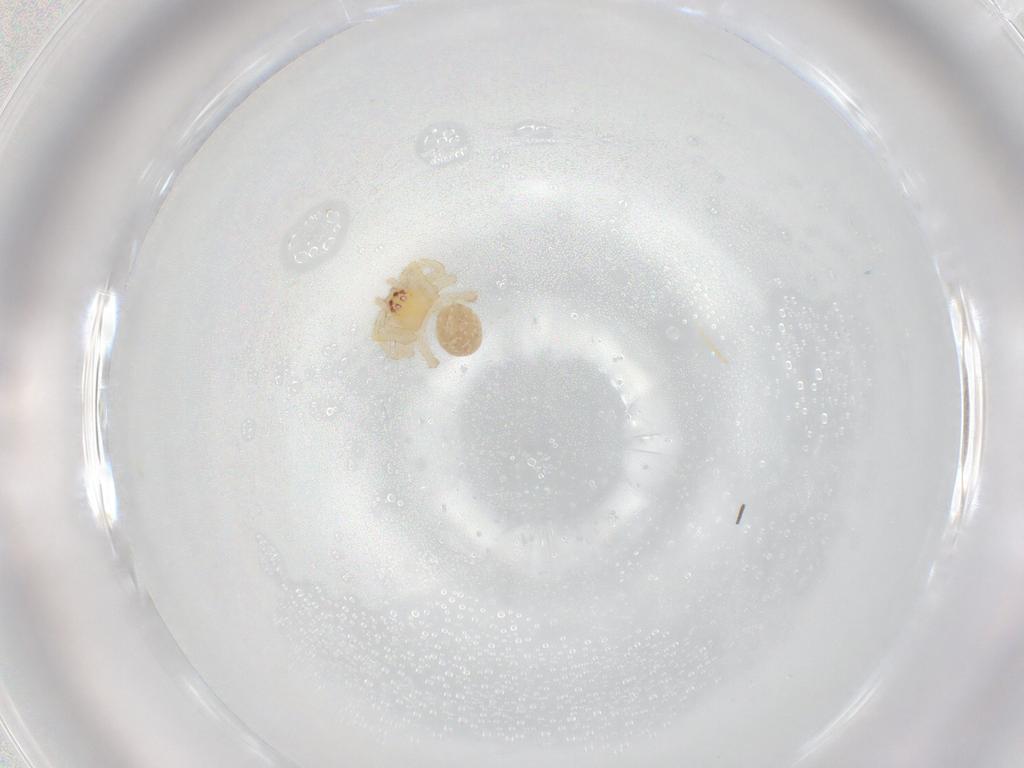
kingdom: Animalia
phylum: Arthropoda
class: Arachnida
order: Araneae
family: Theridiidae
